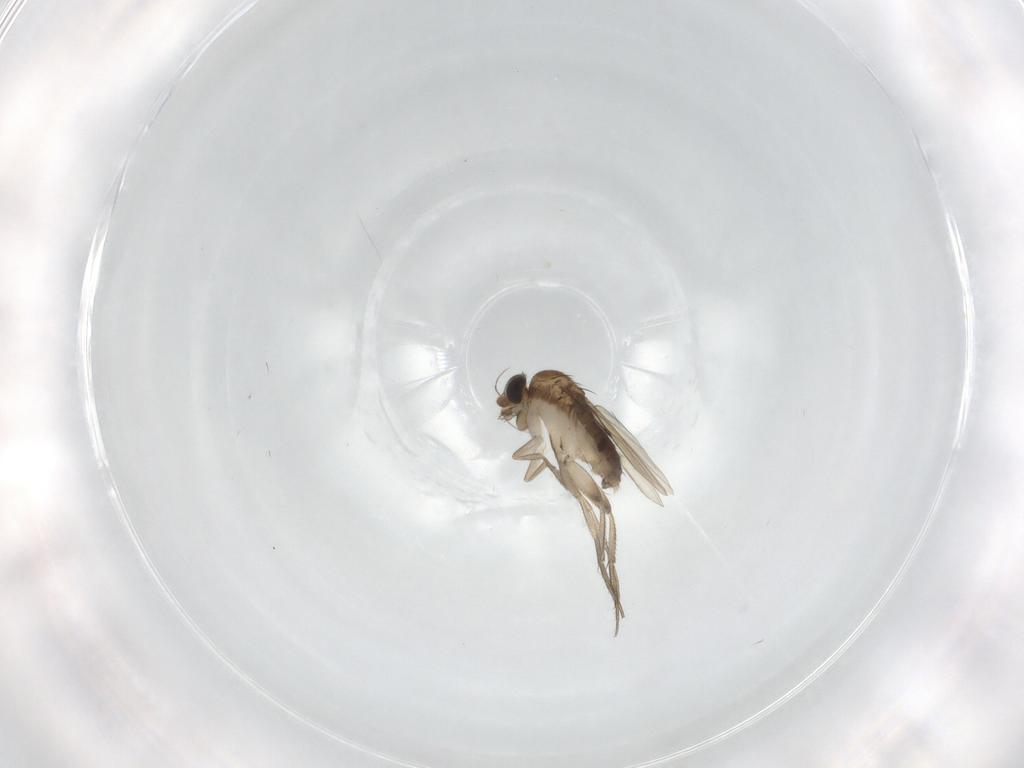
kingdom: Animalia
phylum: Arthropoda
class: Insecta
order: Diptera
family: Phoridae
